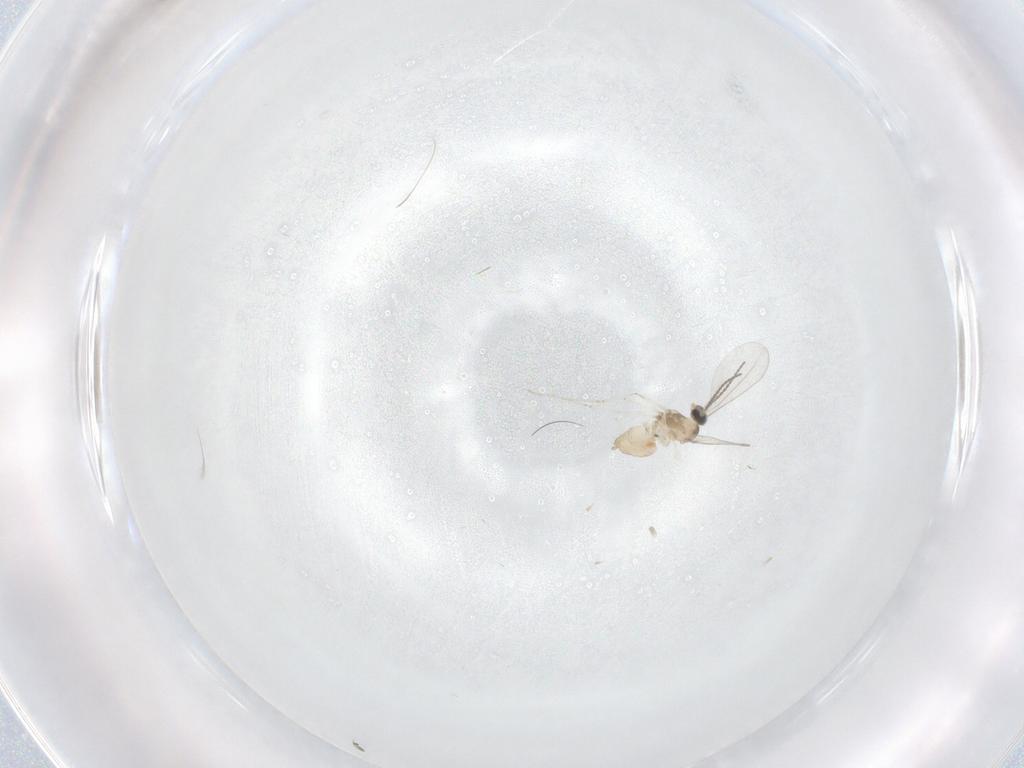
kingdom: Animalia
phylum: Arthropoda
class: Insecta
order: Diptera
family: Cecidomyiidae
